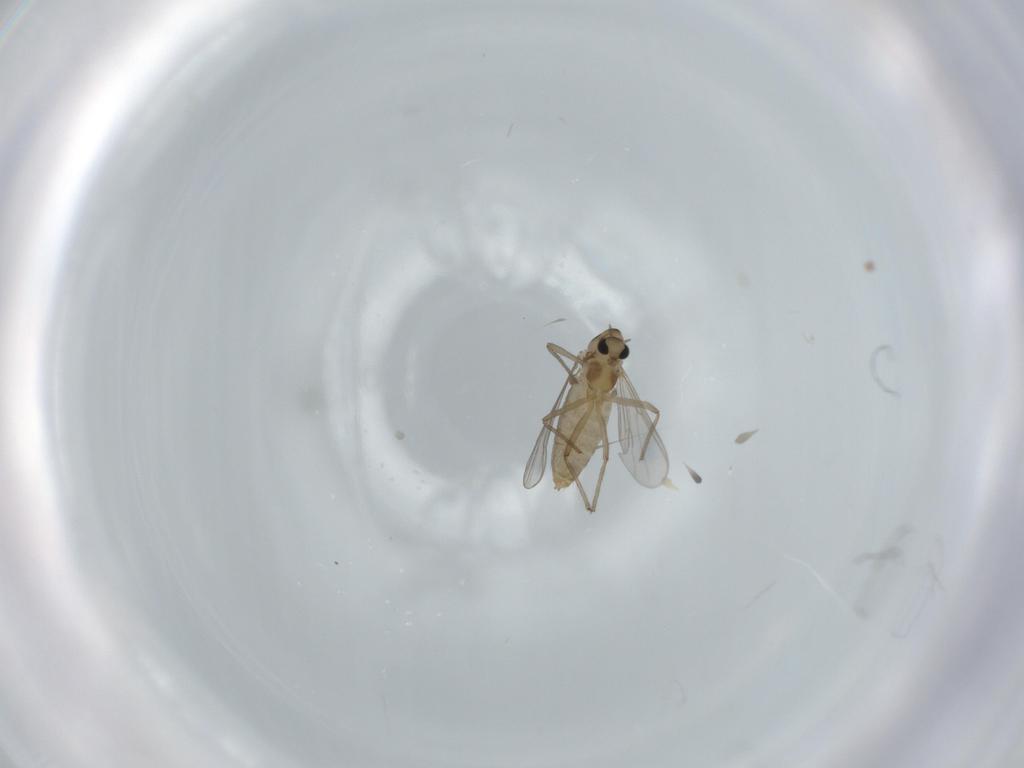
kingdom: Animalia
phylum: Arthropoda
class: Insecta
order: Diptera
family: Chironomidae
